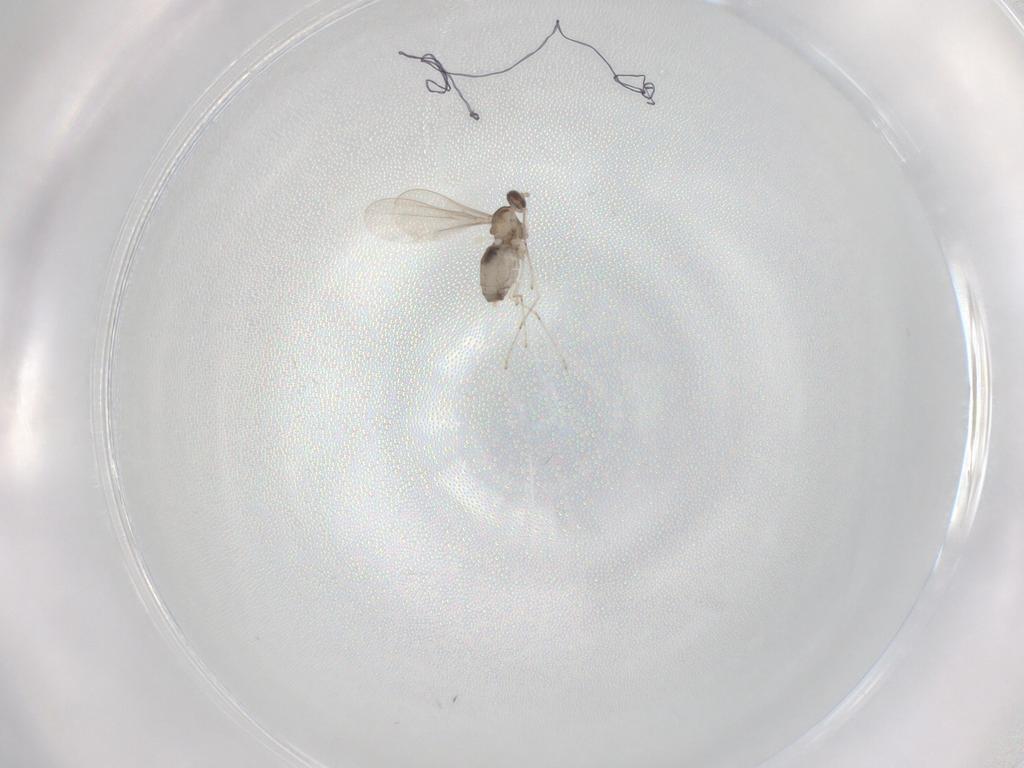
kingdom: Animalia
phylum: Arthropoda
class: Insecta
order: Diptera
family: Cecidomyiidae
